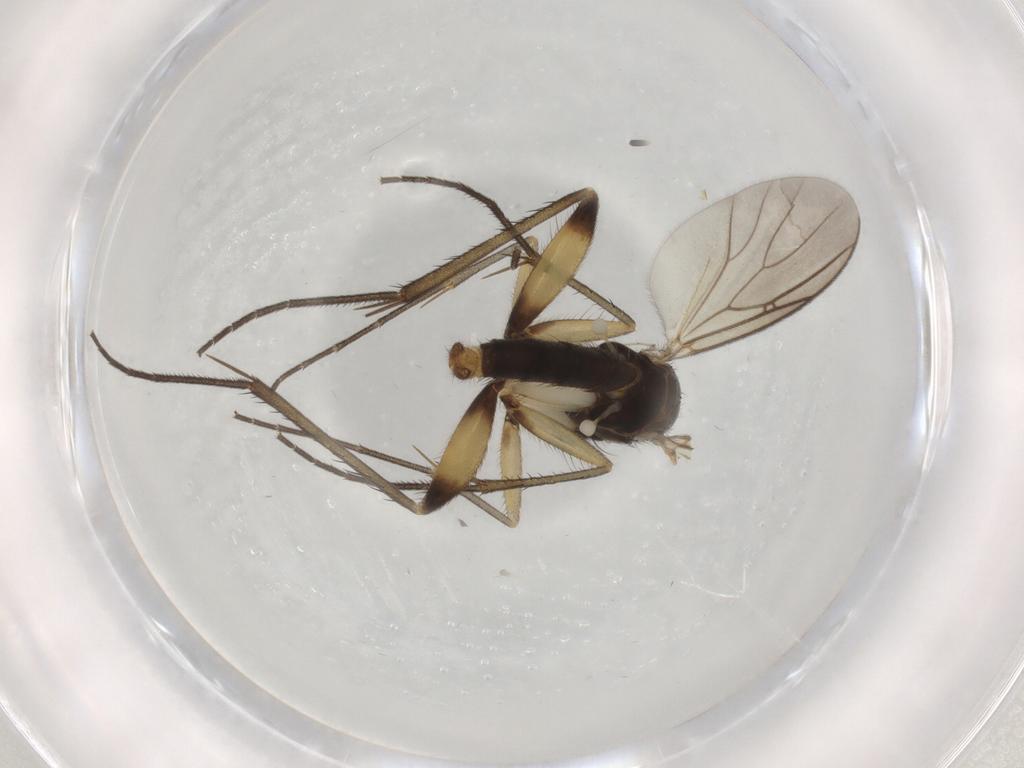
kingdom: Animalia
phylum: Arthropoda
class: Insecta
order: Diptera
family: Mycetophilidae
